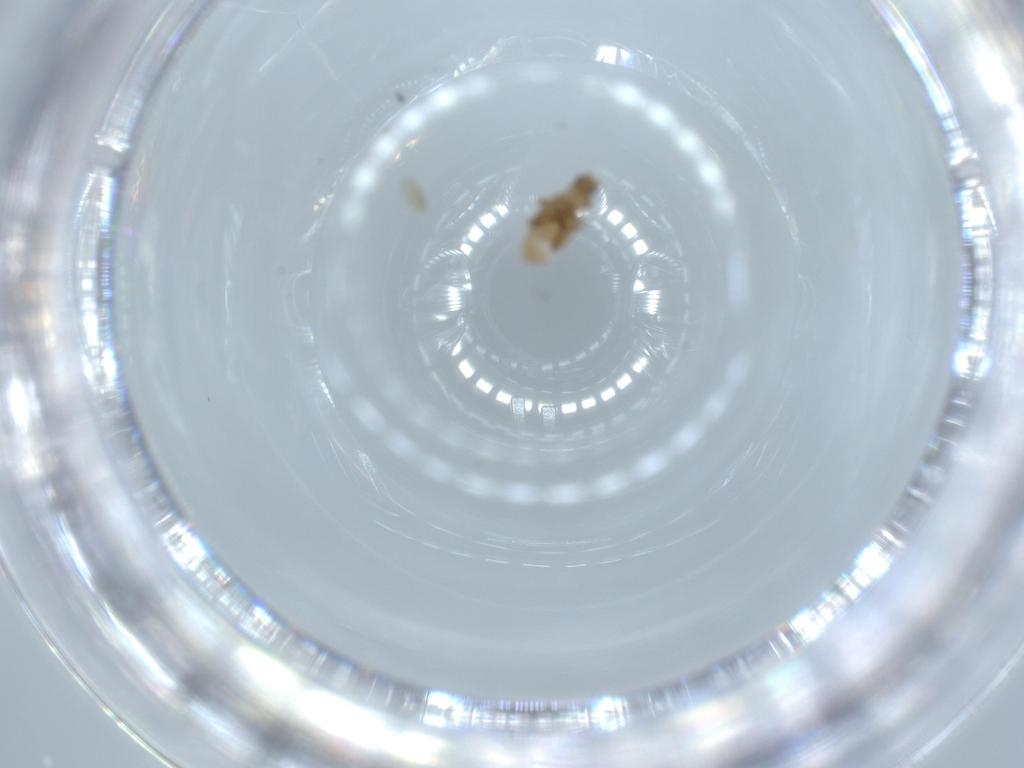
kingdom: Animalia
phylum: Arthropoda
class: Insecta
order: Diptera
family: Phoridae
